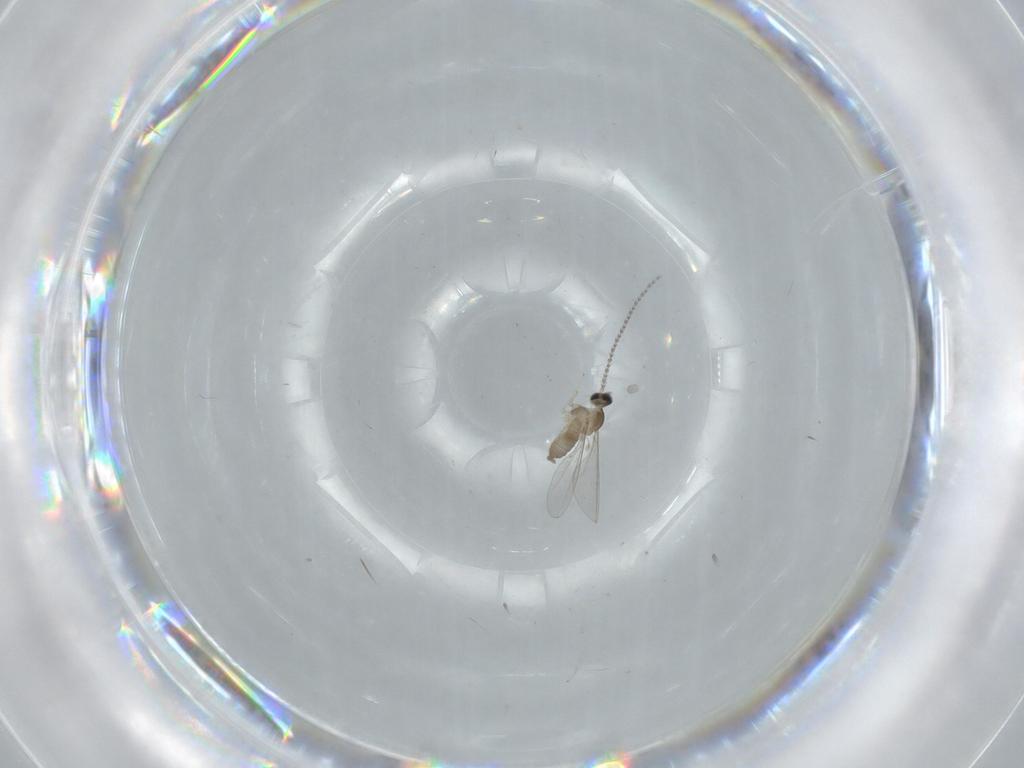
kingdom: Animalia
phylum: Arthropoda
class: Insecta
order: Diptera
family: Cecidomyiidae
